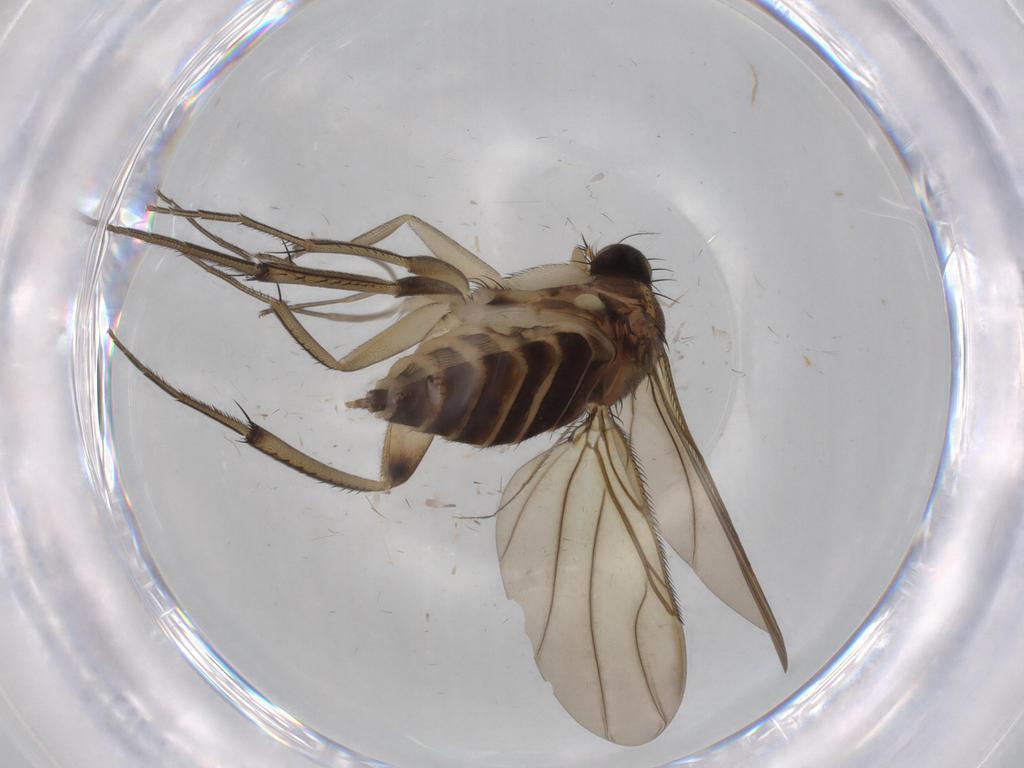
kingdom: Animalia
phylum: Arthropoda
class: Insecta
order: Diptera
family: Phoridae
